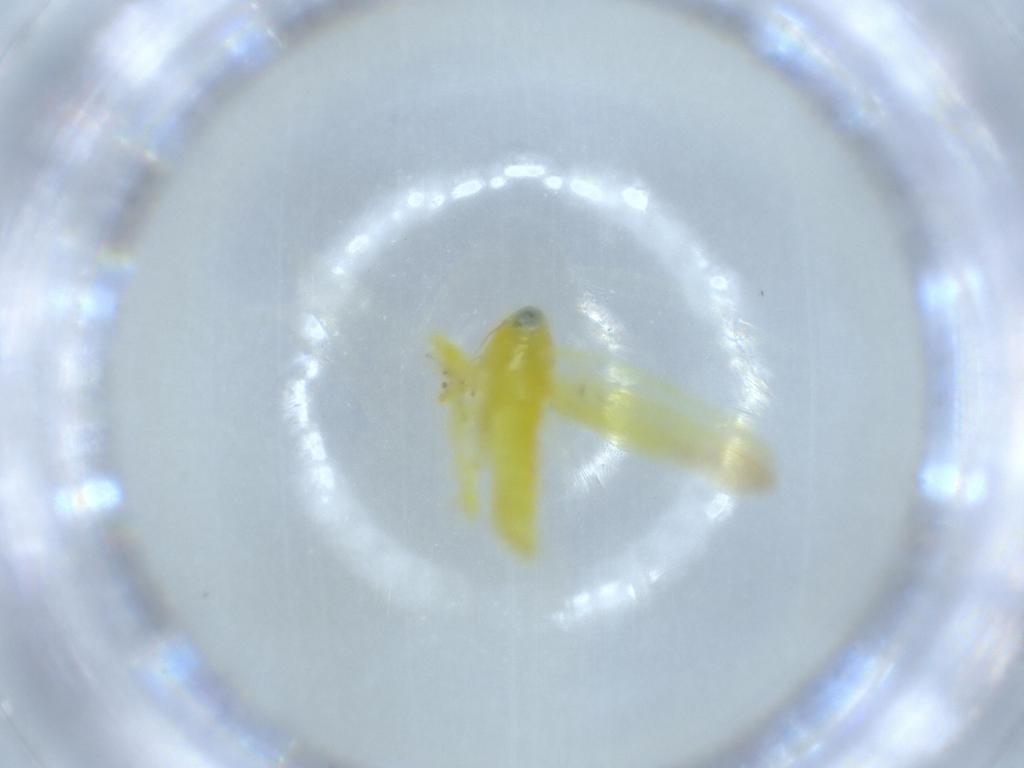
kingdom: Animalia
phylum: Arthropoda
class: Insecta
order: Hemiptera
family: Cicadellidae
